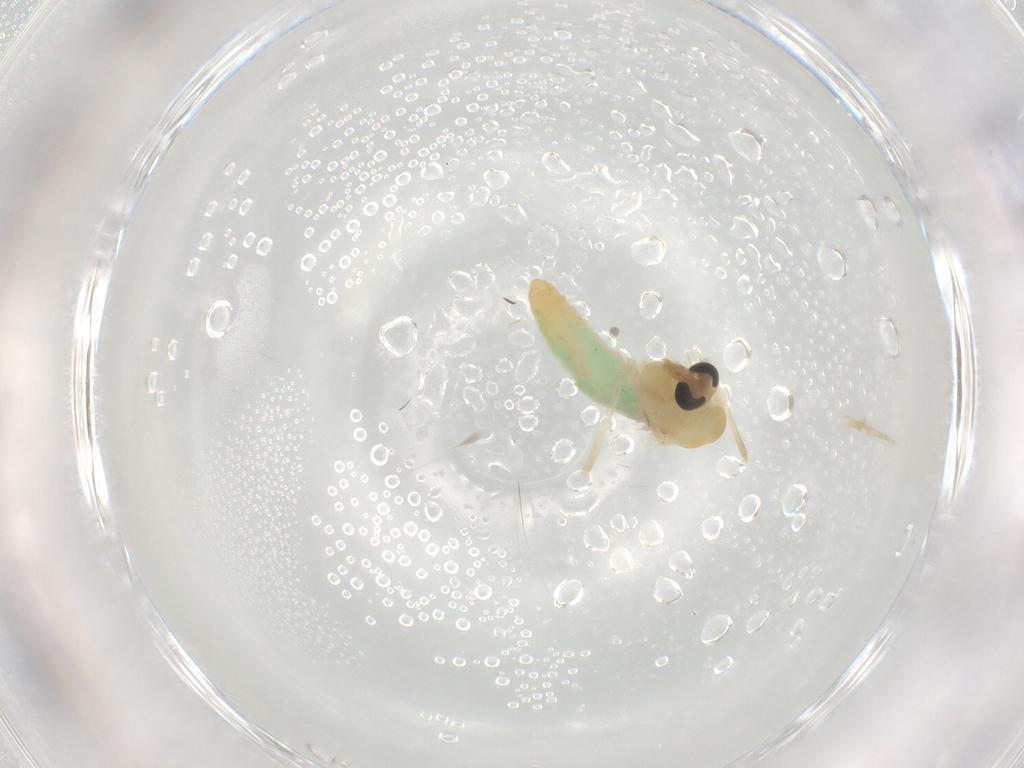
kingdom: Animalia
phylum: Arthropoda
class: Insecta
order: Diptera
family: Chironomidae
